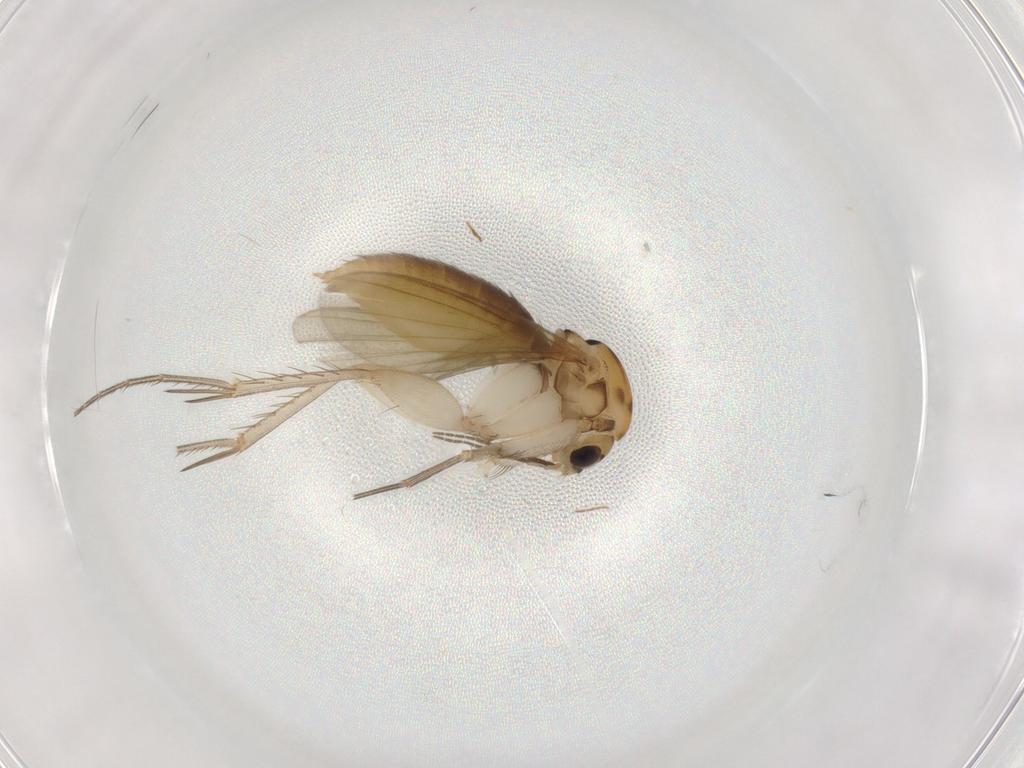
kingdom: Animalia
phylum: Arthropoda
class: Insecta
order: Diptera
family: Mycetophilidae
